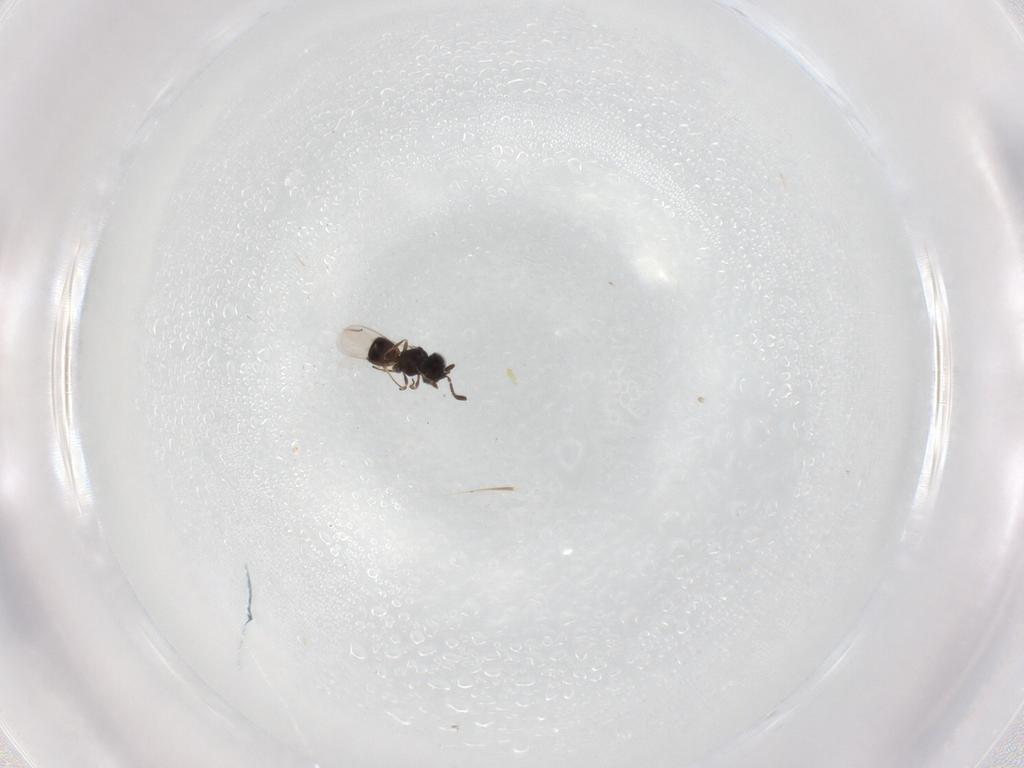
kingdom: Animalia
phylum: Arthropoda
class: Insecta
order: Hymenoptera
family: Scelionidae
